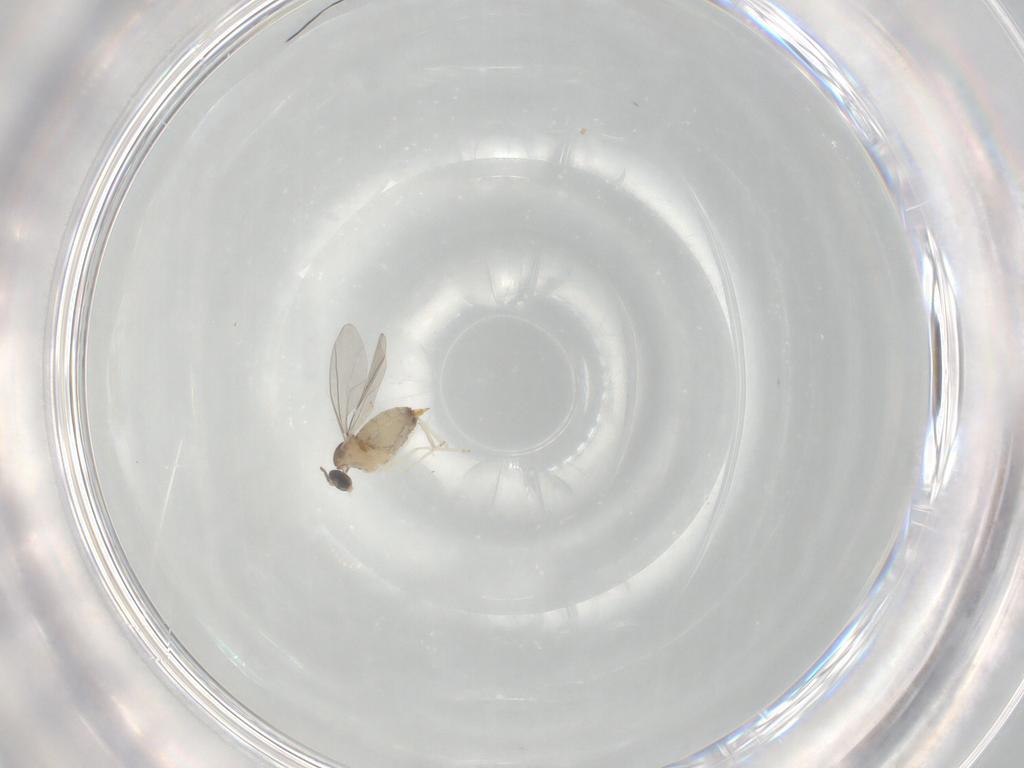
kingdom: Animalia
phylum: Arthropoda
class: Insecta
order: Diptera
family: Cecidomyiidae
